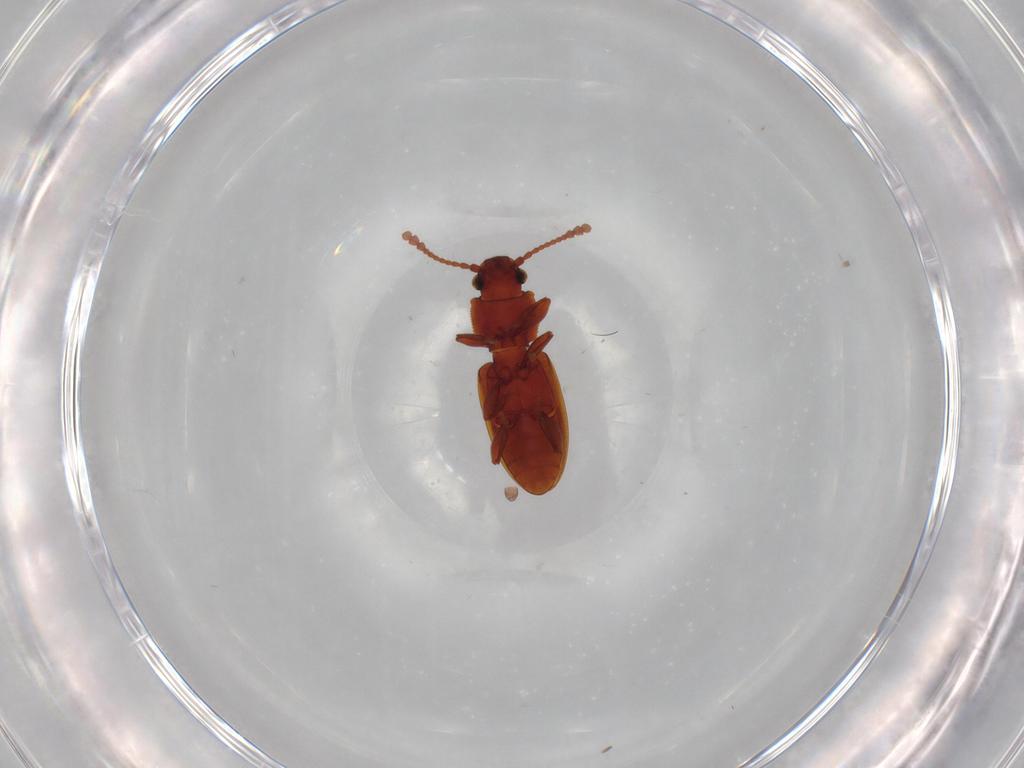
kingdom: Animalia
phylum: Arthropoda
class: Insecta
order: Coleoptera
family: Silvanidae
